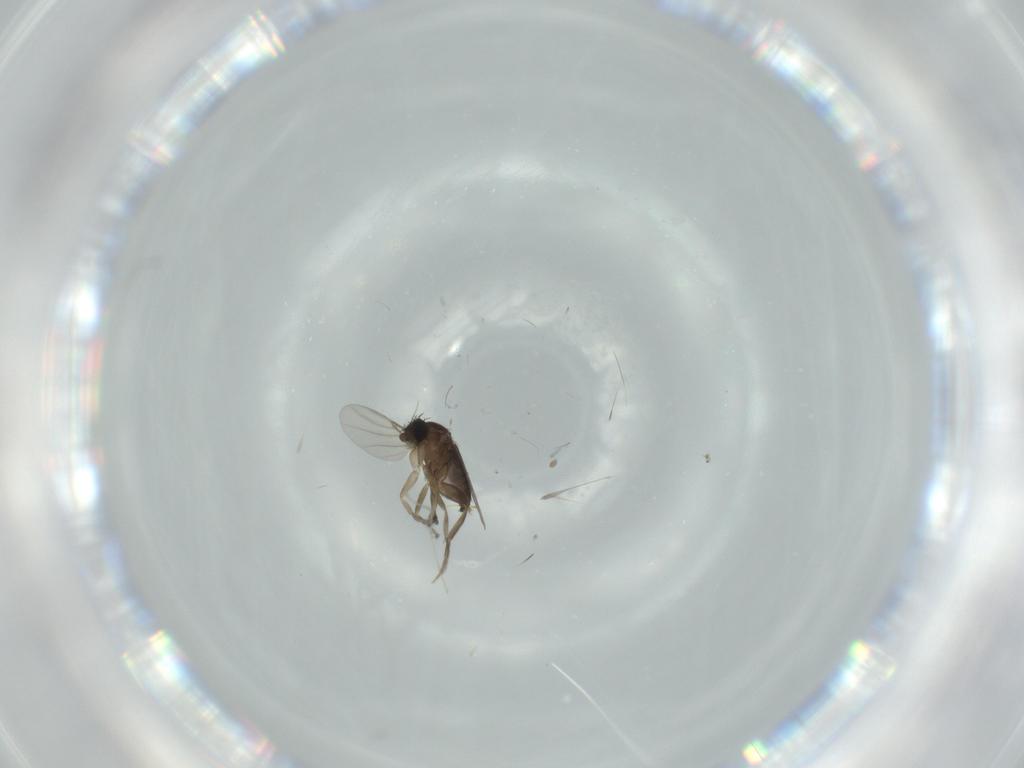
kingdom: Animalia
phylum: Arthropoda
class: Insecta
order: Diptera
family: Phoridae
